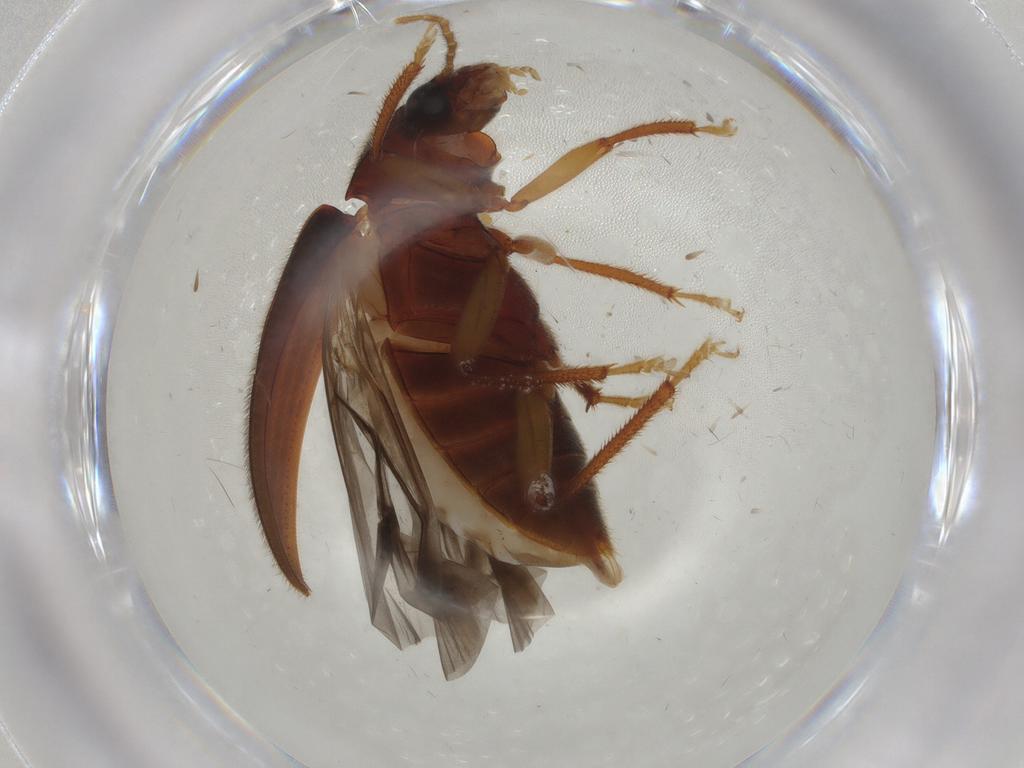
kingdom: Animalia
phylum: Arthropoda
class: Insecta
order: Coleoptera
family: Ptilodactylidae
